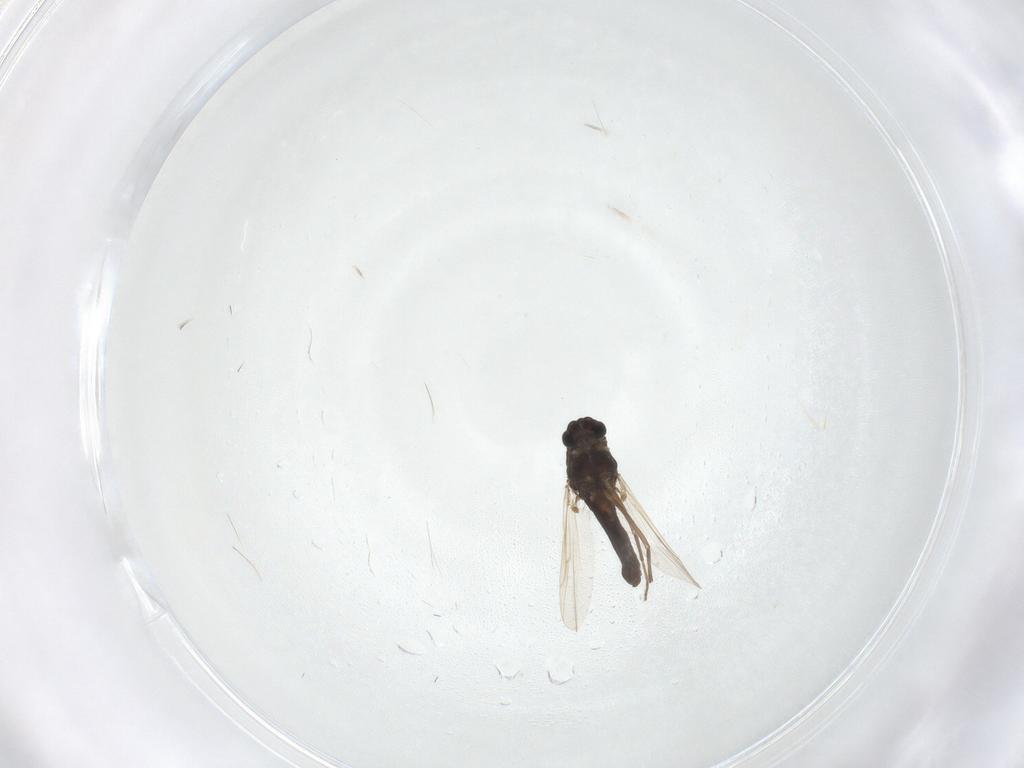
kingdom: Animalia
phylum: Arthropoda
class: Insecta
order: Diptera
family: Chironomidae
